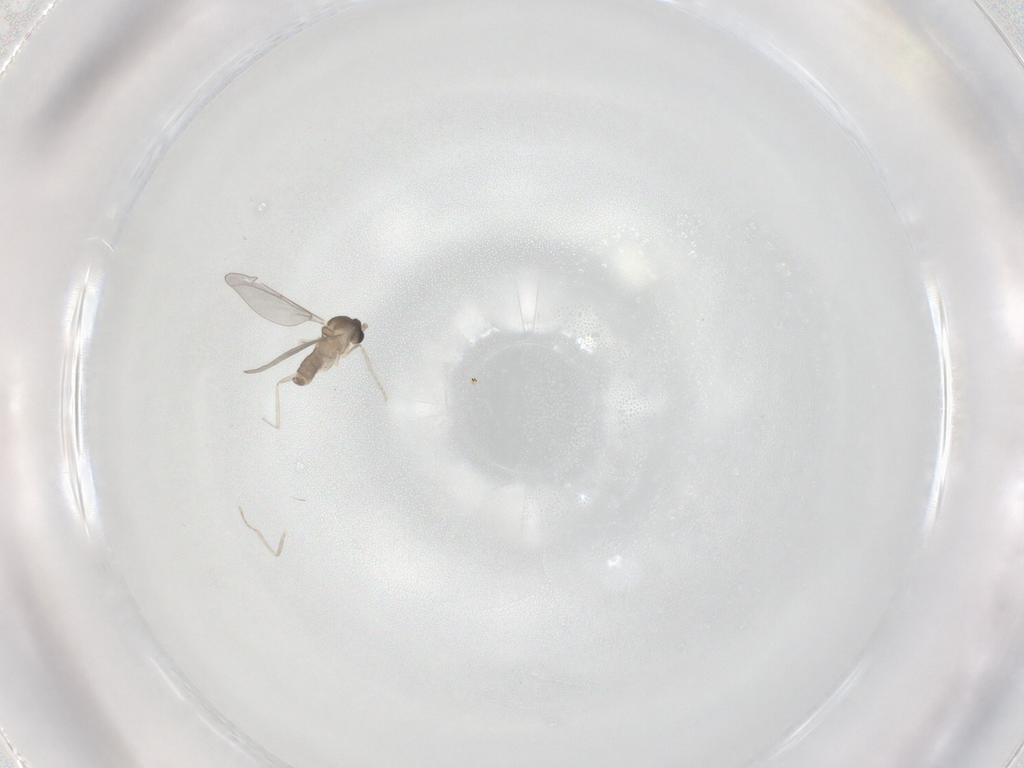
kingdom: Animalia
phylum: Arthropoda
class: Insecta
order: Diptera
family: Cecidomyiidae
